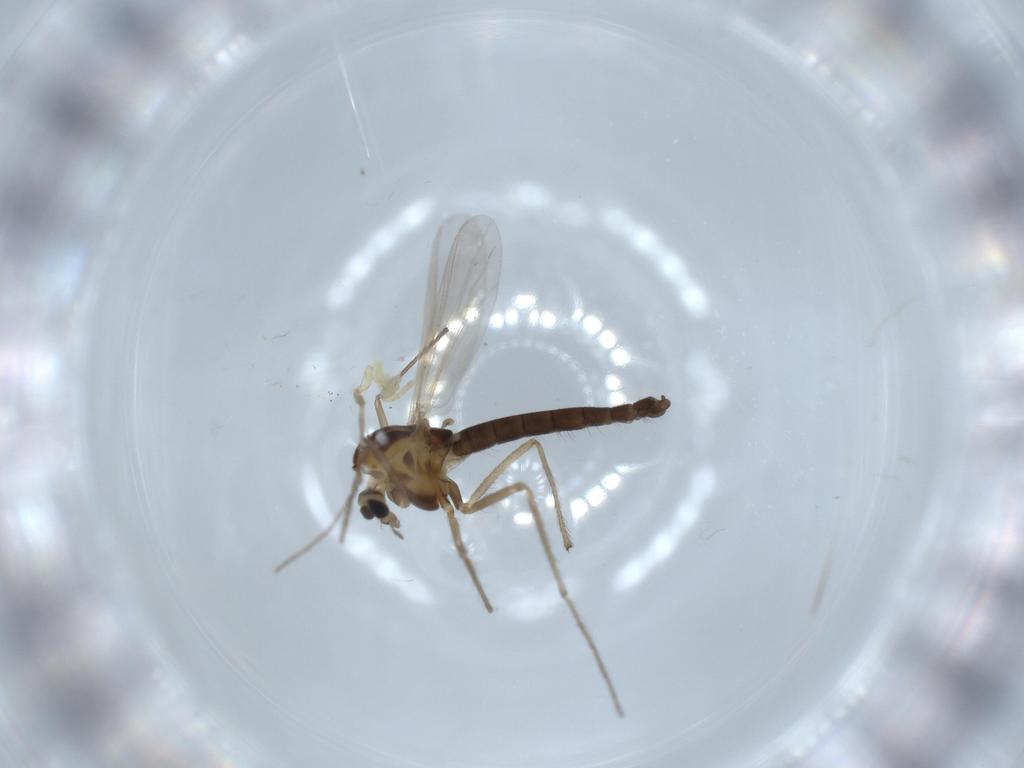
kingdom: Animalia
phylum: Arthropoda
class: Insecta
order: Diptera
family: Chironomidae
